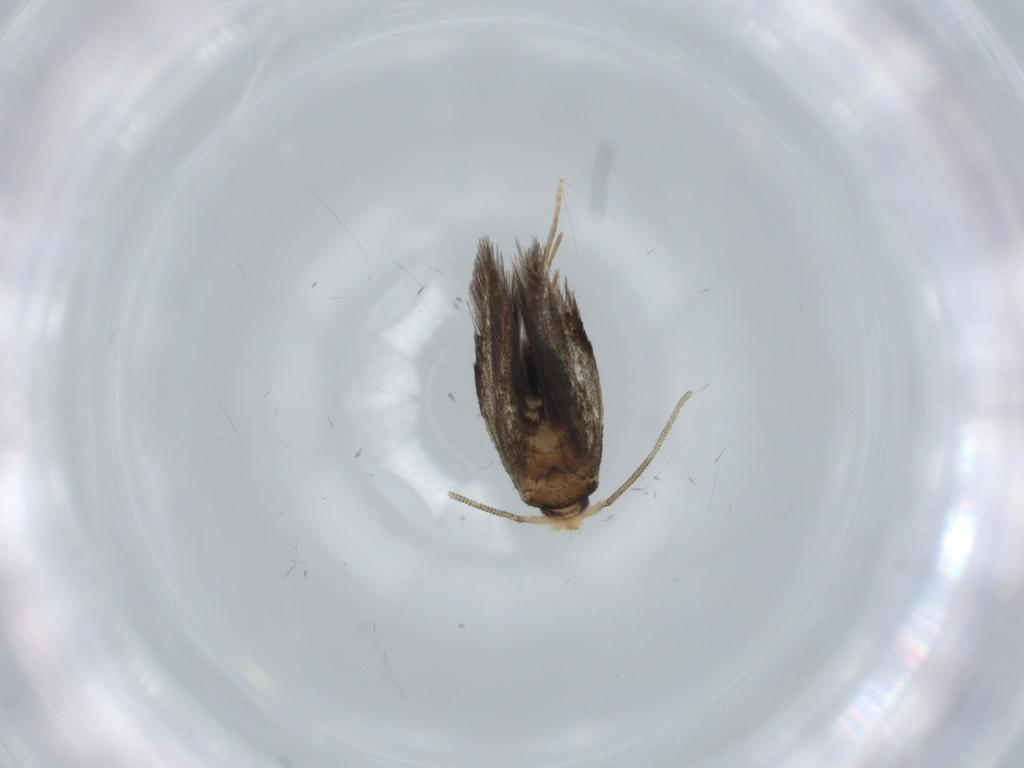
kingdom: Animalia
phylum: Arthropoda
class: Insecta
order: Lepidoptera
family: Nepticulidae
